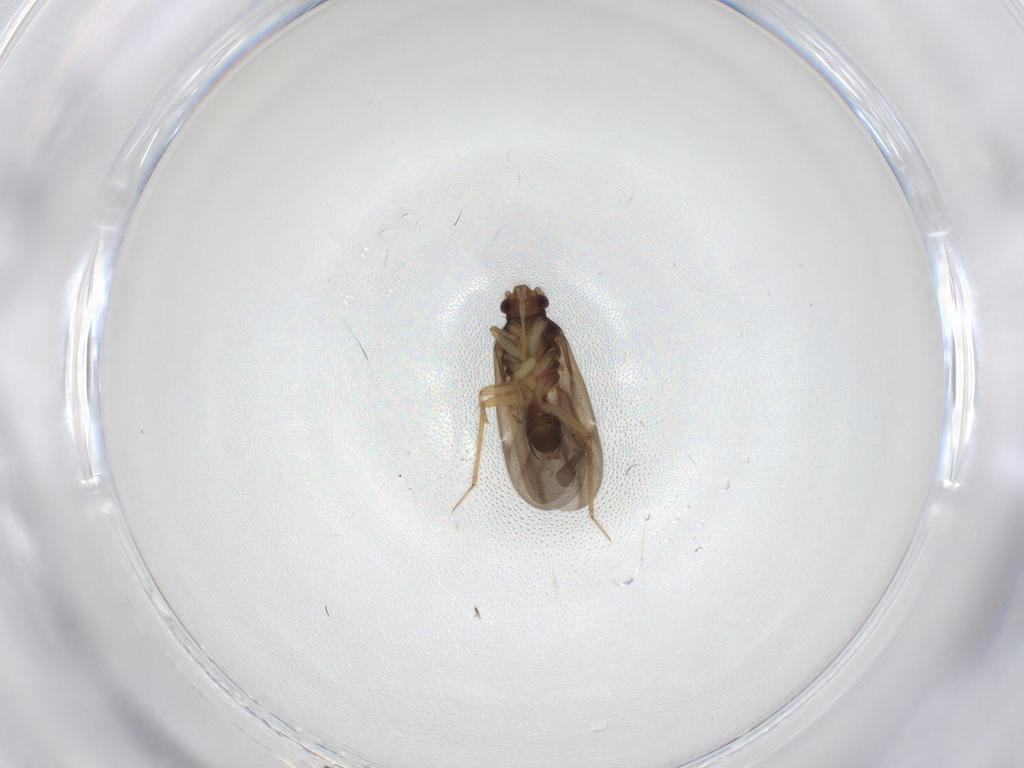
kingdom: Animalia
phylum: Arthropoda
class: Insecta
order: Hemiptera
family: Ceratocombidae
